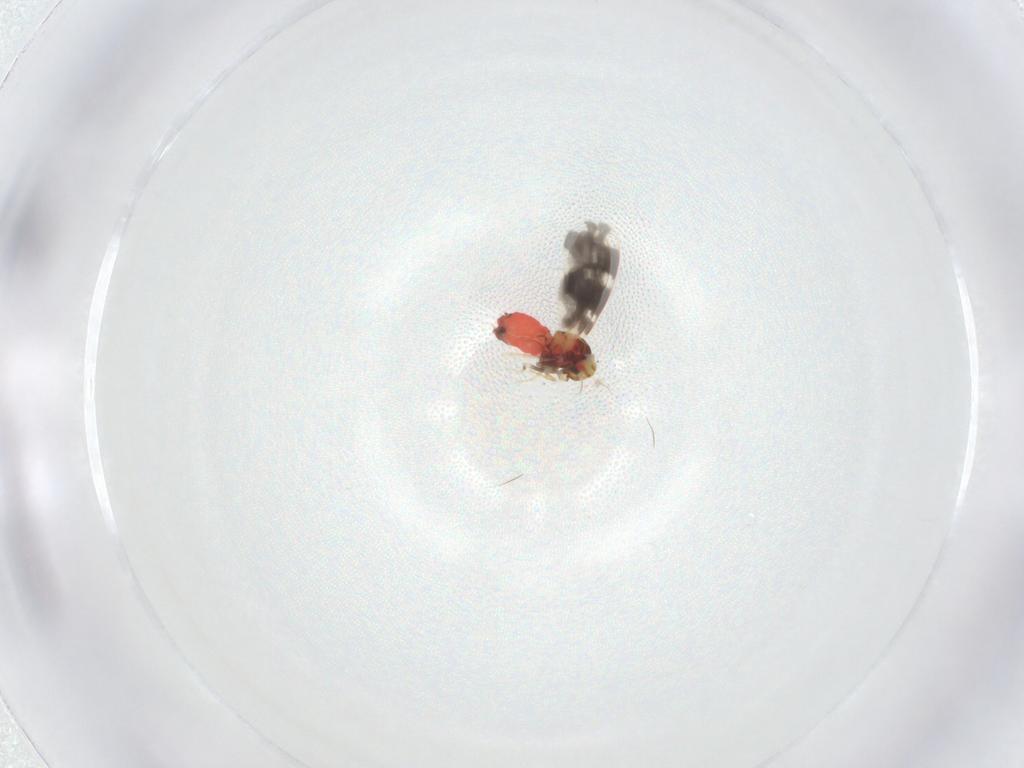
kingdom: Animalia
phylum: Arthropoda
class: Insecta
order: Hemiptera
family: Aleyrodidae
